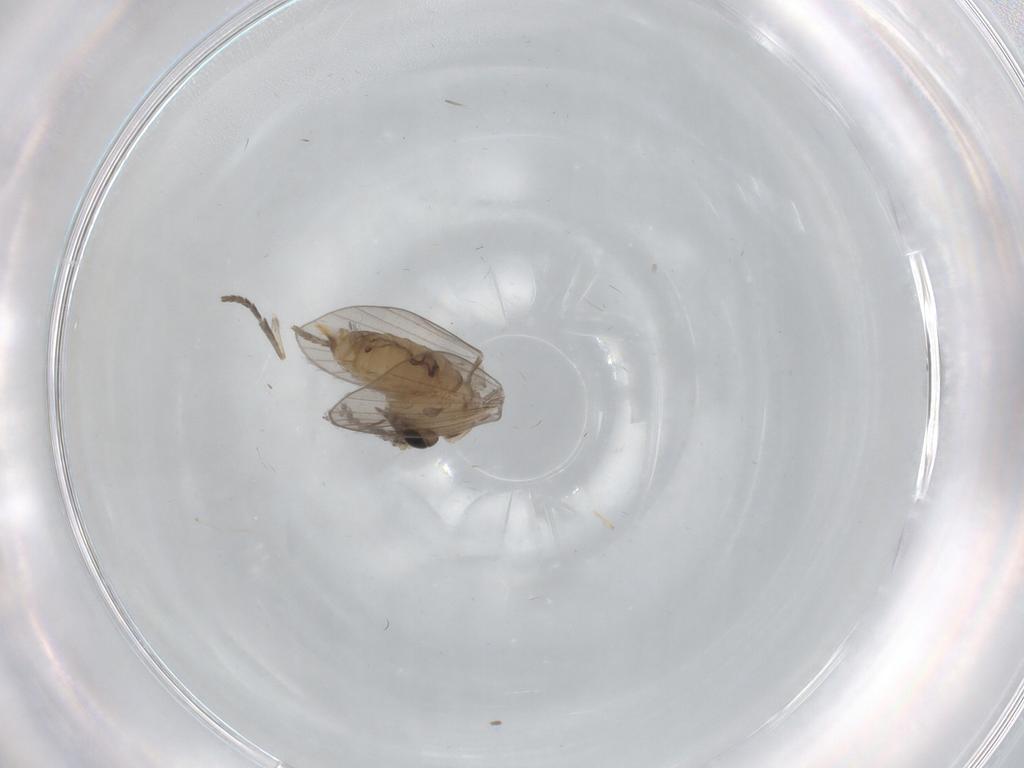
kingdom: Animalia
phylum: Arthropoda
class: Insecta
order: Diptera
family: Psychodidae
